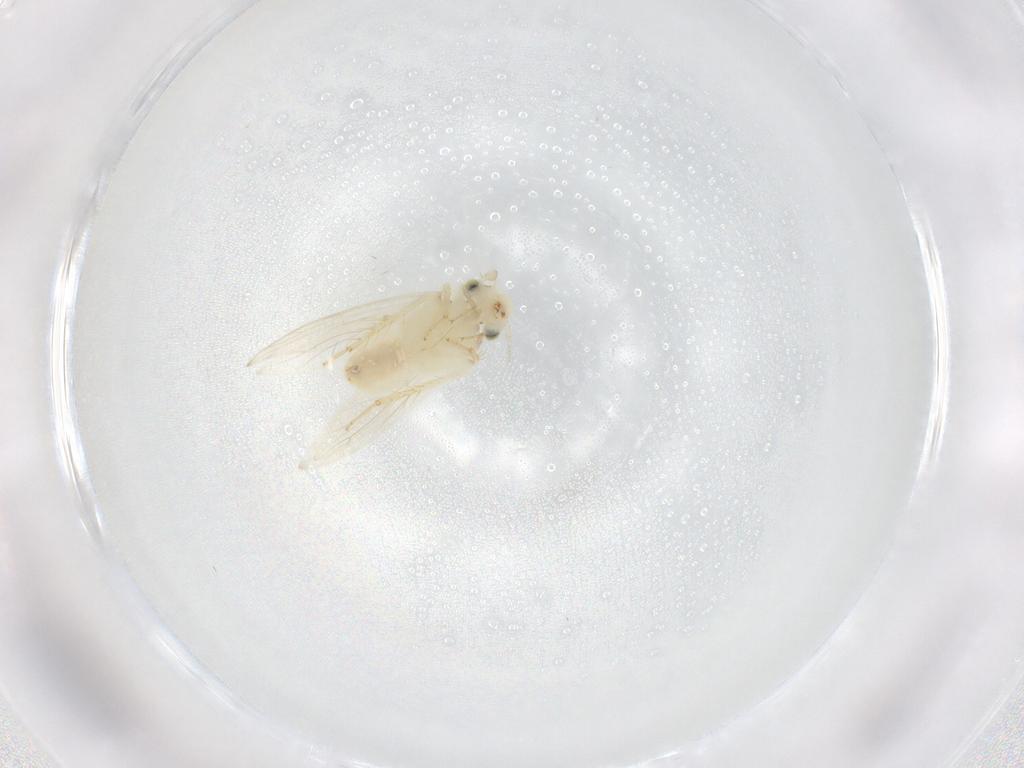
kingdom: Animalia
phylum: Arthropoda
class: Insecta
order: Psocodea
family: Lepidopsocidae
